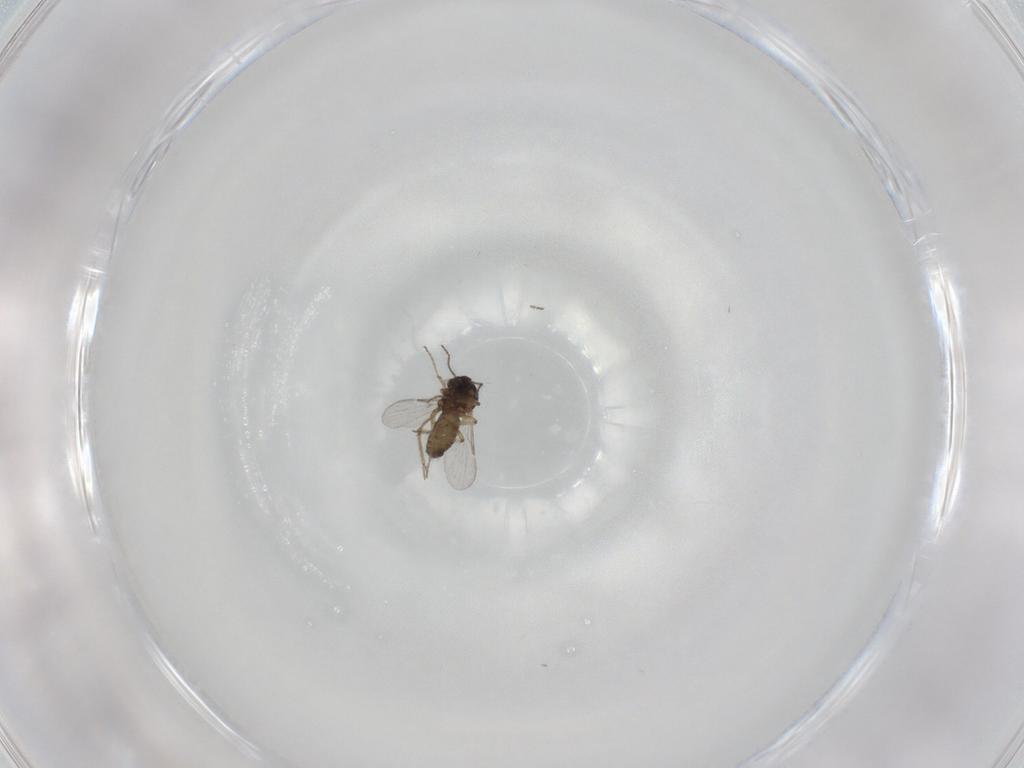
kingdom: Animalia
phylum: Arthropoda
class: Insecta
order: Diptera
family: Ceratopogonidae
